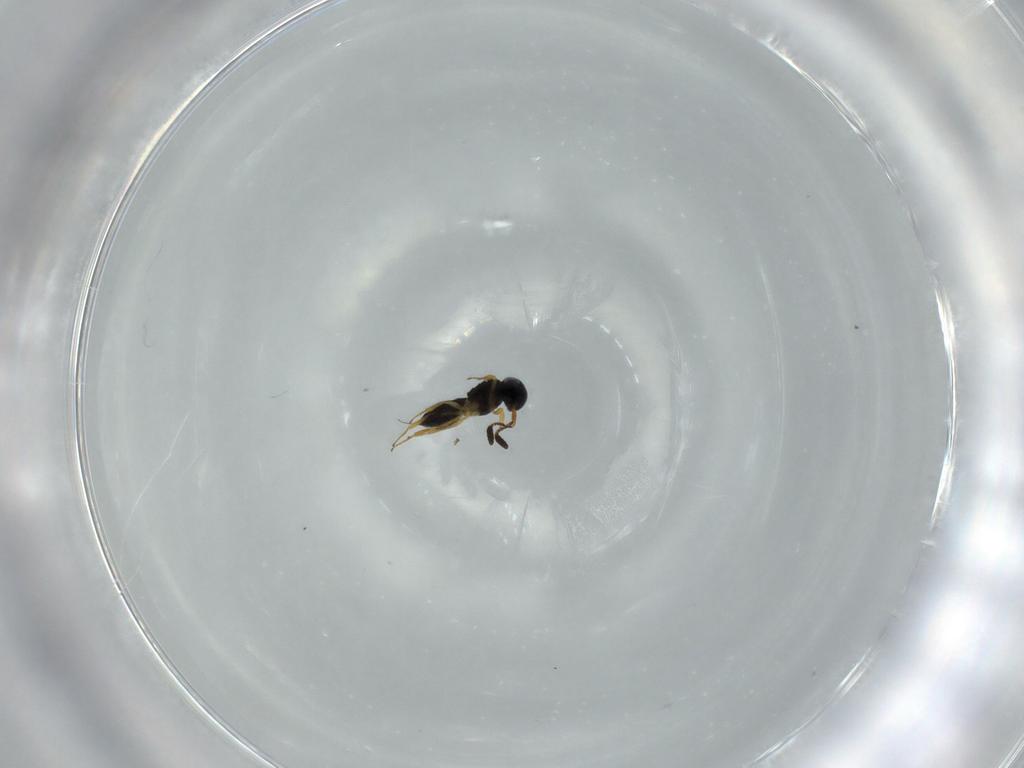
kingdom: Animalia
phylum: Arthropoda
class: Insecta
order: Hymenoptera
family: Scelionidae
